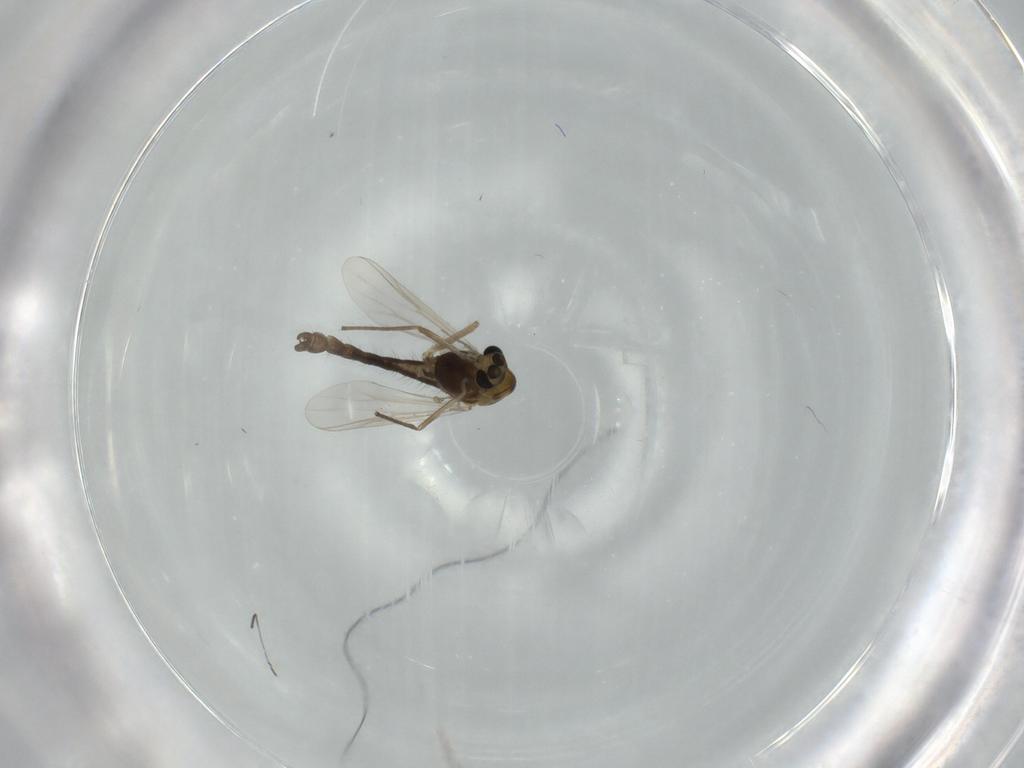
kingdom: Animalia
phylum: Arthropoda
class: Insecta
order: Diptera
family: Chironomidae
